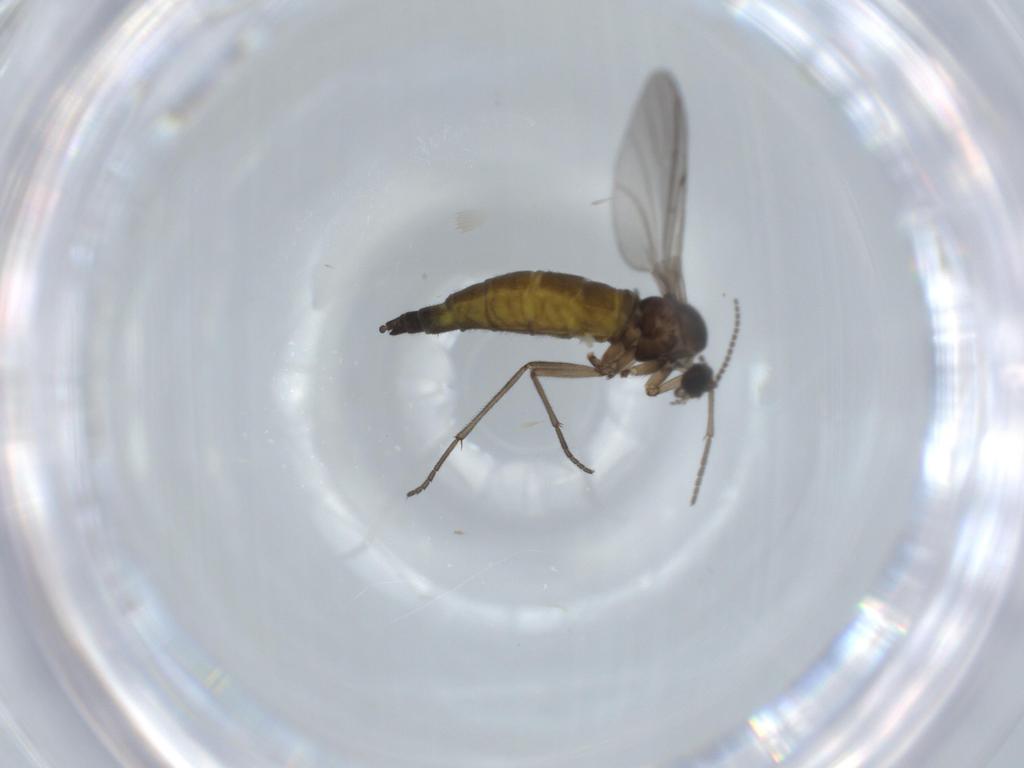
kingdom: Animalia
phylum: Arthropoda
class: Insecta
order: Diptera
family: Sciaridae
